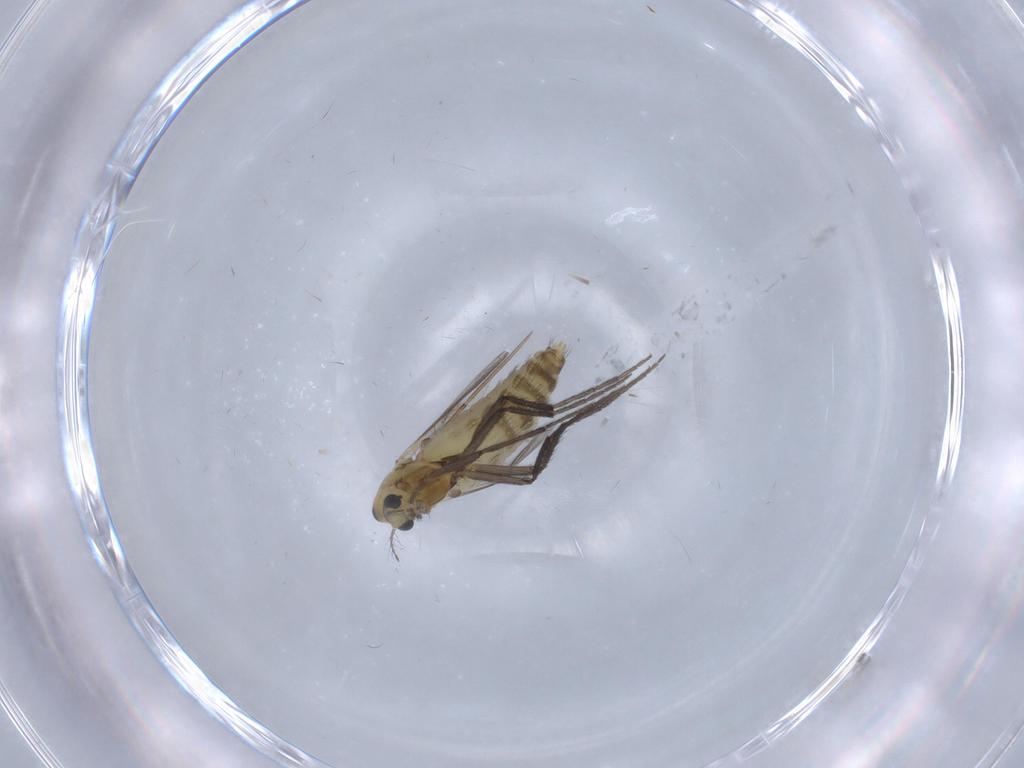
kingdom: Animalia
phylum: Arthropoda
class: Insecta
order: Diptera
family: Chironomidae
